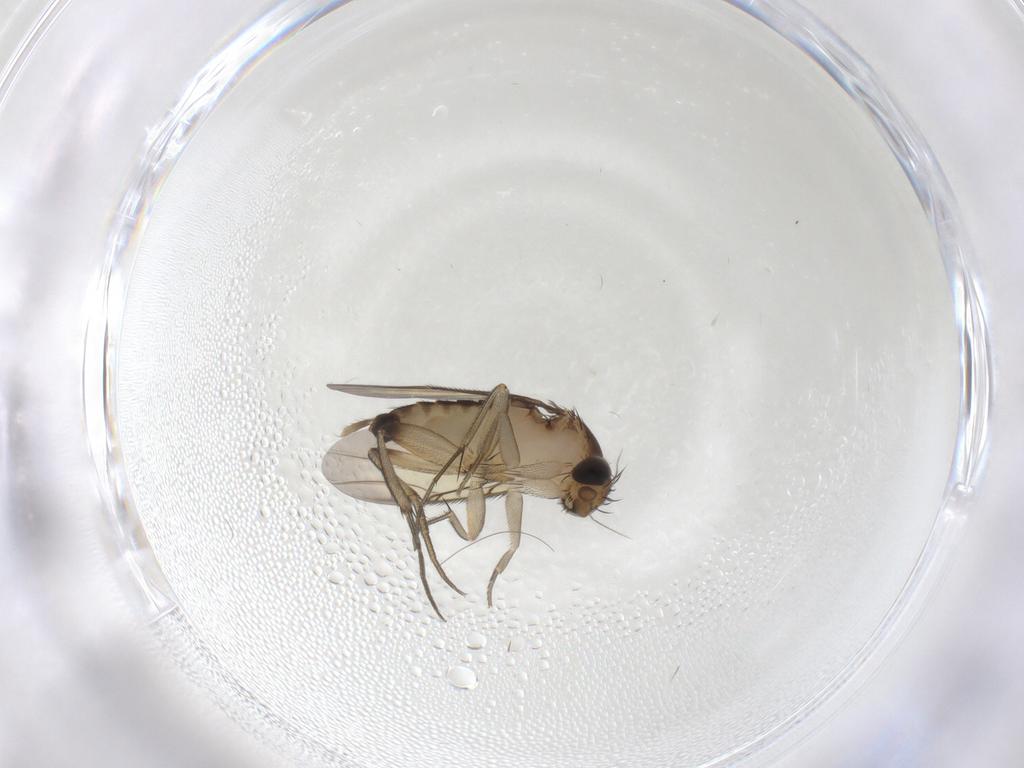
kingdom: Animalia
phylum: Arthropoda
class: Insecta
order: Diptera
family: Phoridae
